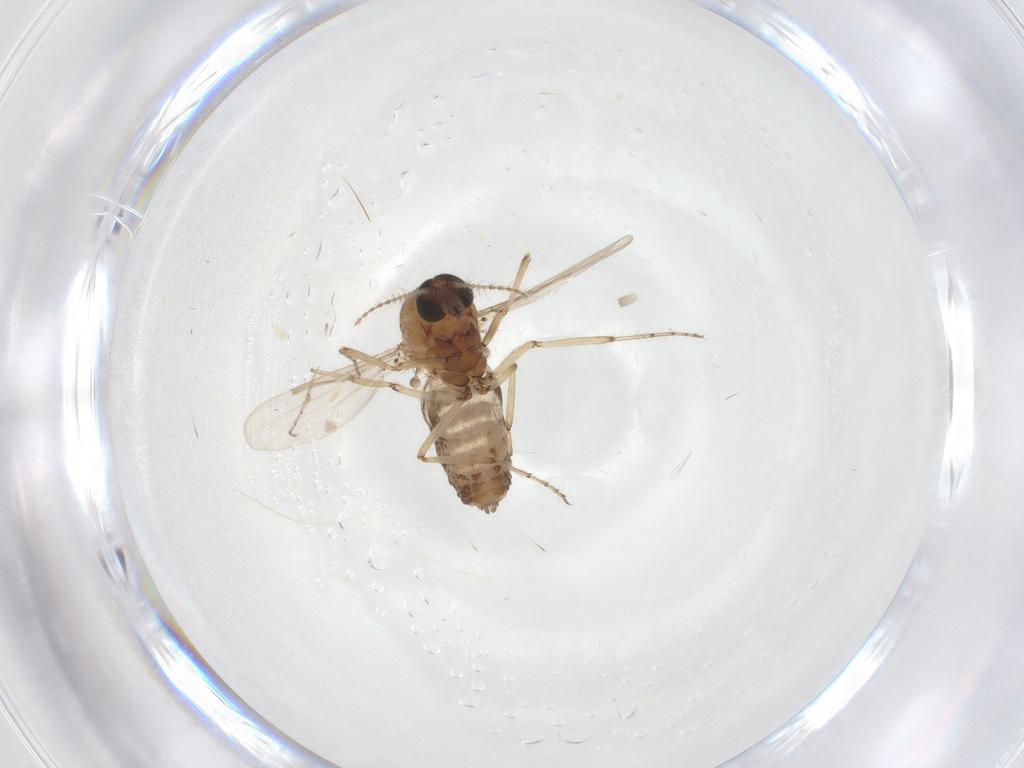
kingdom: Animalia
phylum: Arthropoda
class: Insecta
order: Diptera
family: Ceratopogonidae
